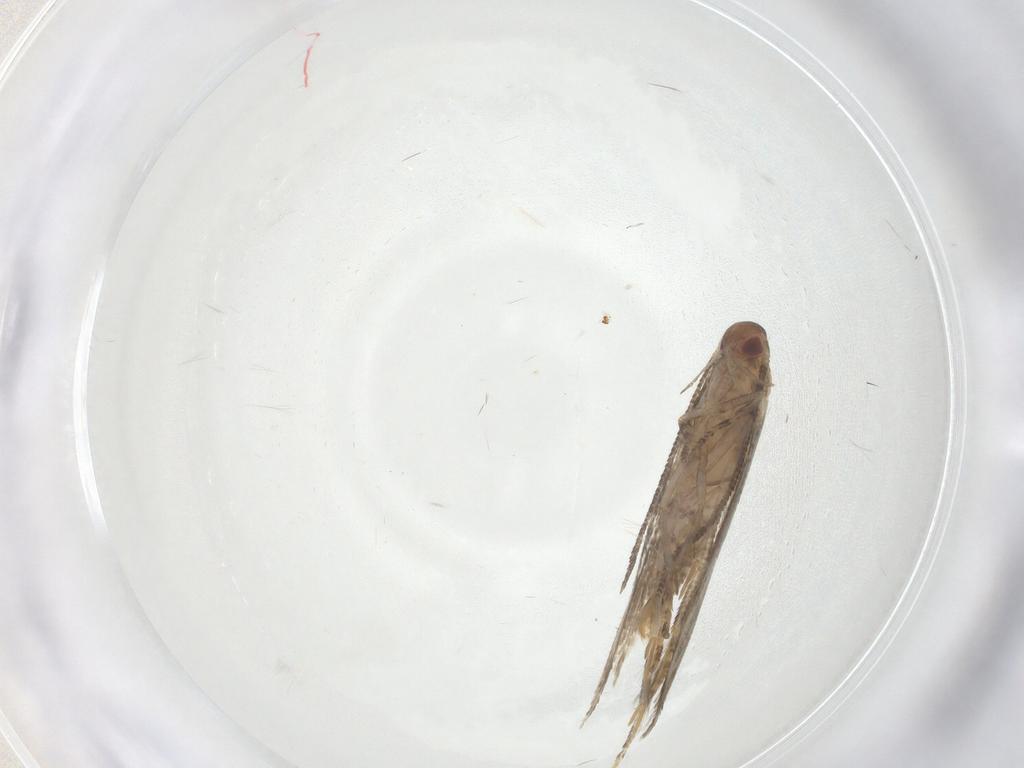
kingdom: Animalia
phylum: Arthropoda
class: Insecta
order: Lepidoptera
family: Momphidae
